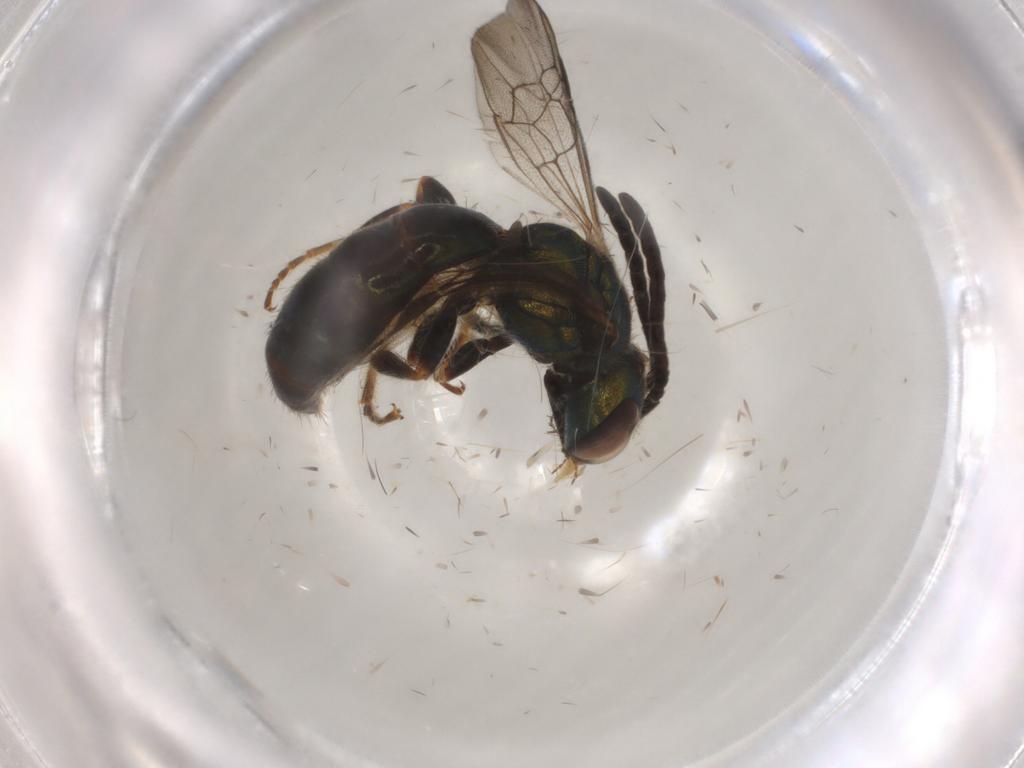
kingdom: Animalia
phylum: Arthropoda
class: Insecta
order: Hymenoptera
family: Halictidae
